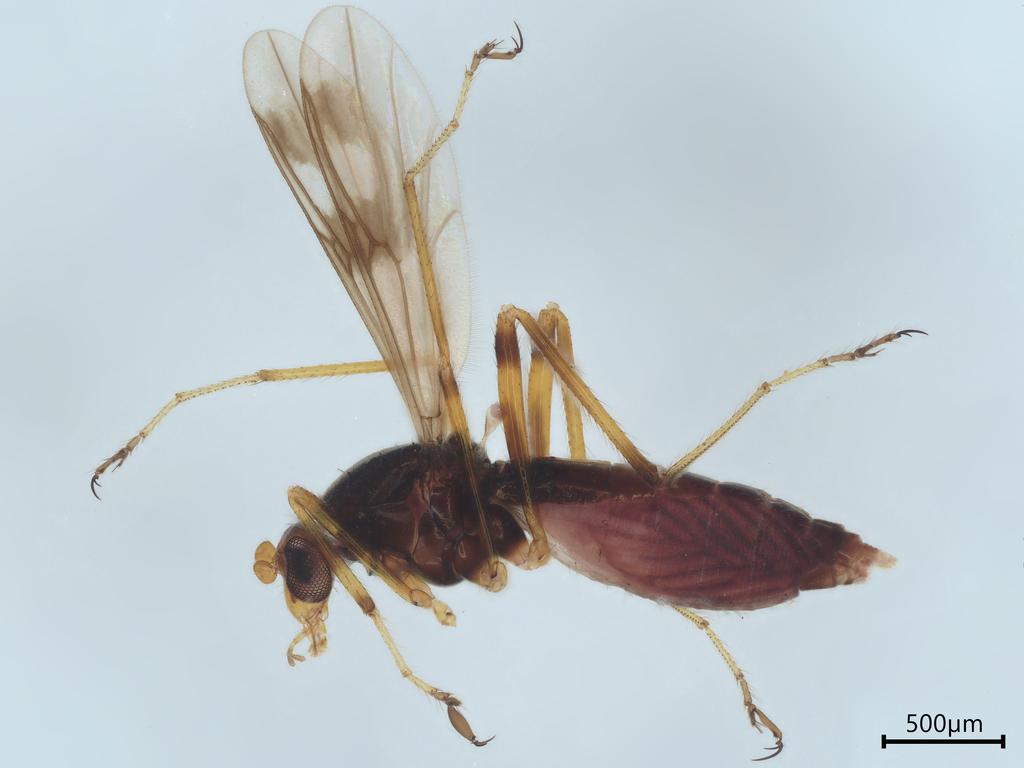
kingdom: Animalia
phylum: Arthropoda
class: Insecta
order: Diptera
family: Ceratopogonidae
